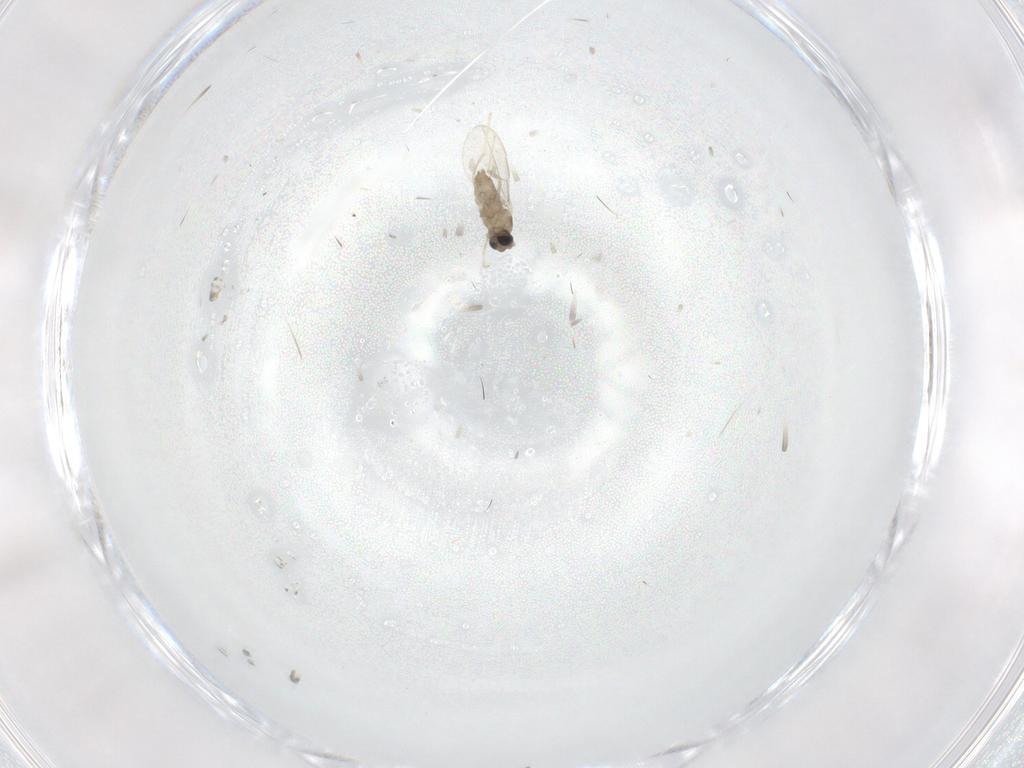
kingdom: Animalia
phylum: Arthropoda
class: Insecta
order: Diptera
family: Cecidomyiidae
